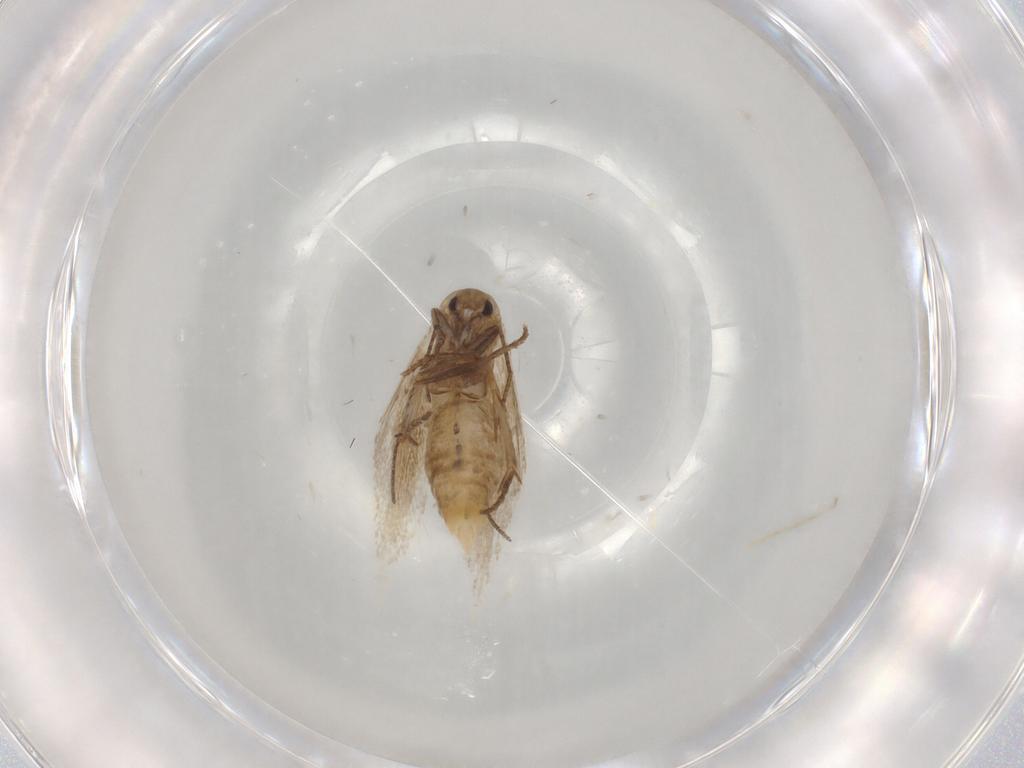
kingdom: Animalia
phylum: Arthropoda
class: Insecta
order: Lepidoptera
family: Bucculatricidae
